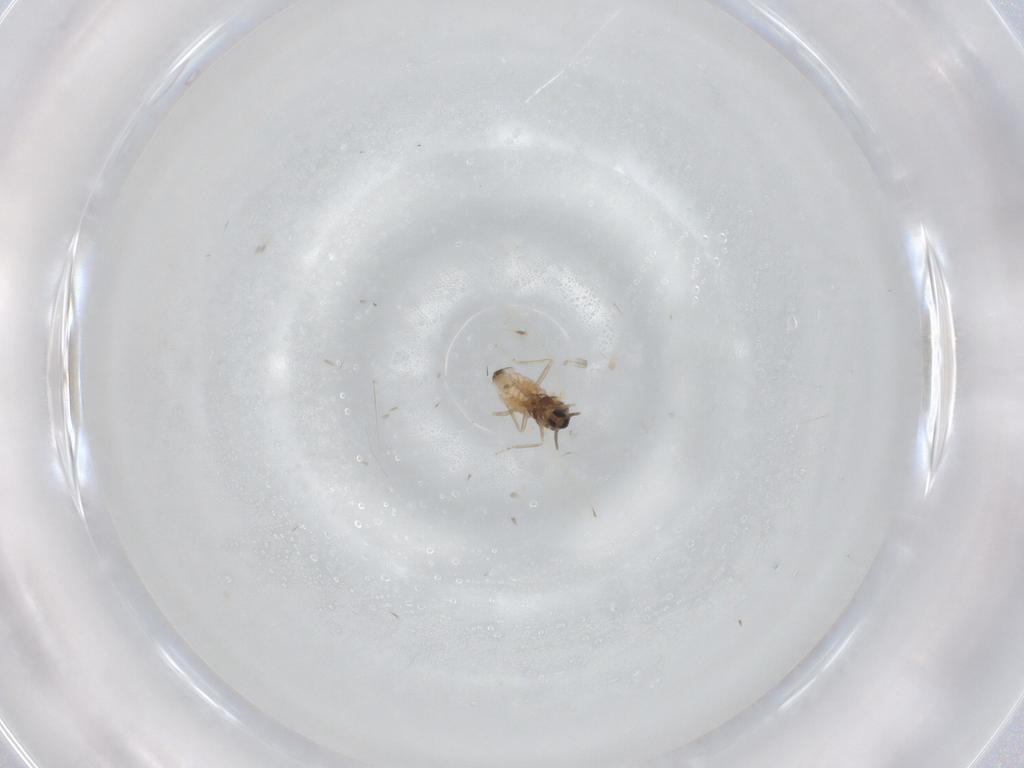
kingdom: Animalia
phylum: Arthropoda
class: Insecta
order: Diptera
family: Cecidomyiidae
